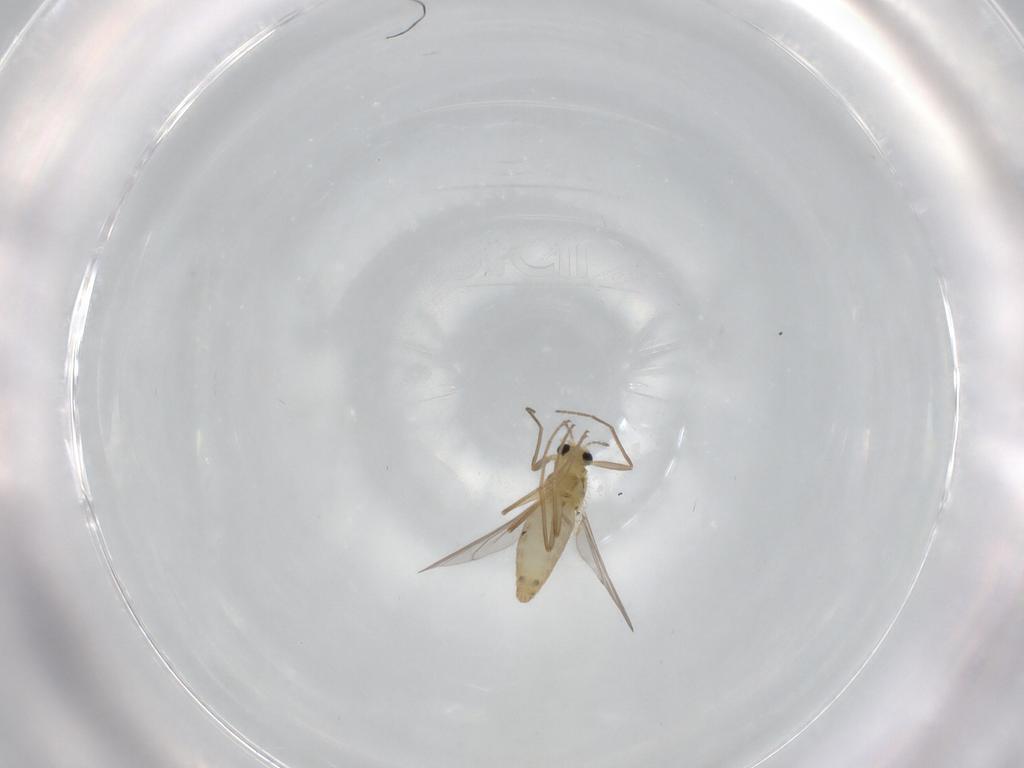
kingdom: Animalia
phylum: Arthropoda
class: Insecta
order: Diptera
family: Chironomidae
